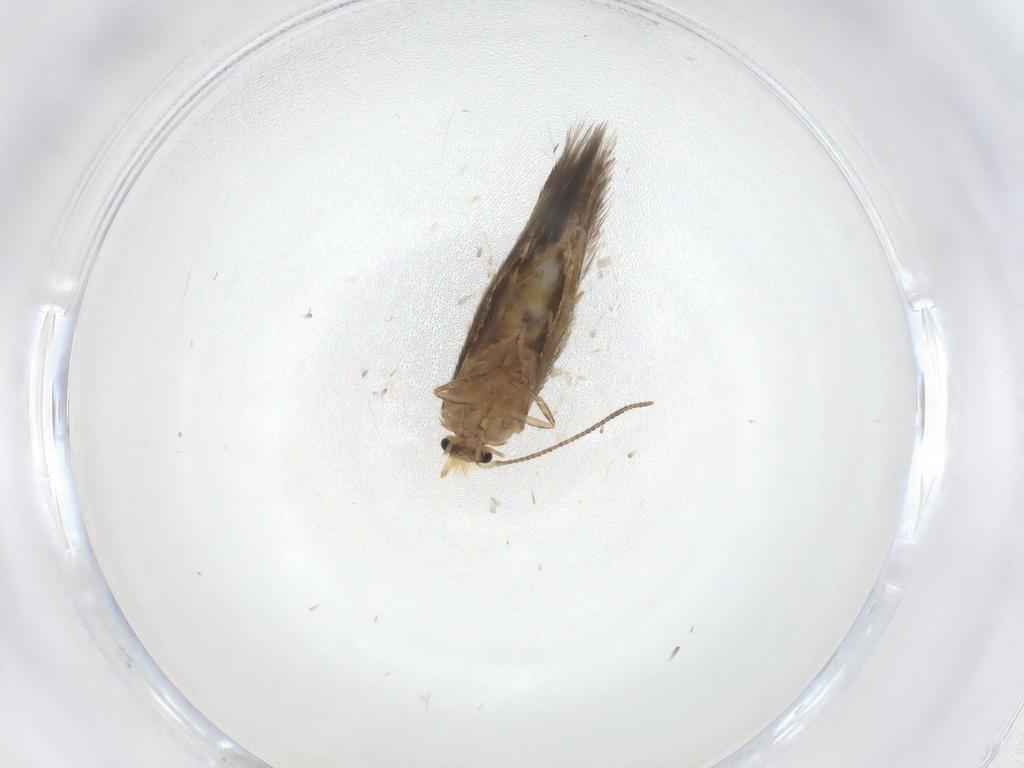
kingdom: Animalia
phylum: Arthropoda
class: Insecta
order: Lepidoptera
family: Nepticulidae
